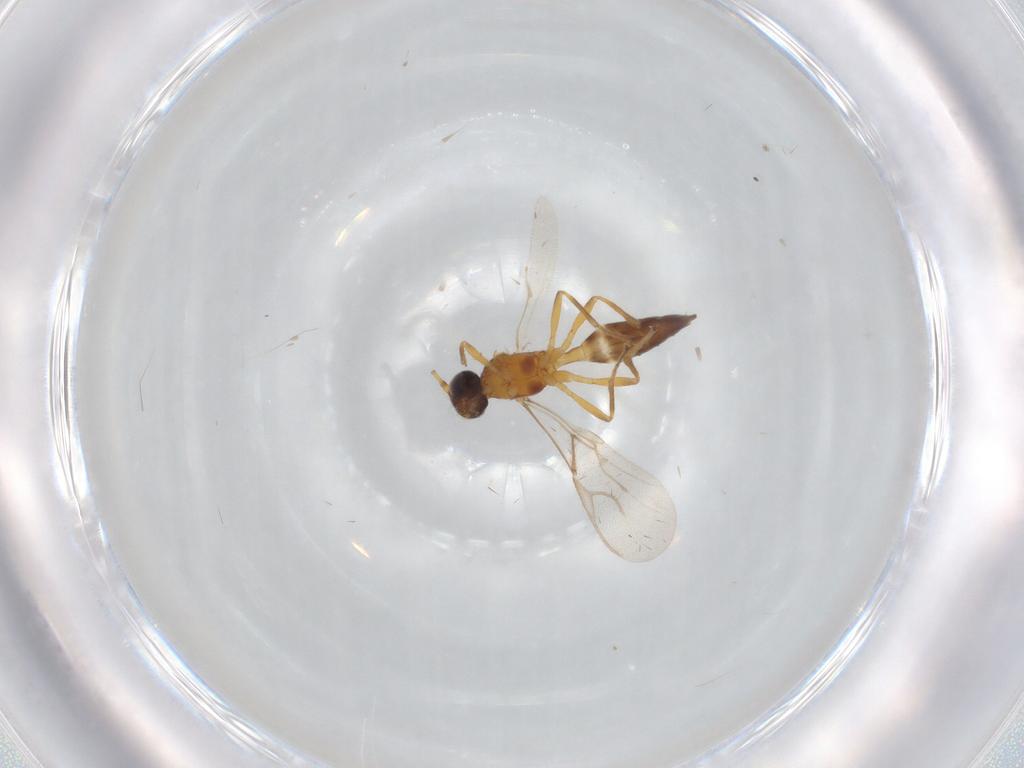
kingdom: Animalia
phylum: Arthropoda
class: Insecta
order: Hymenoptera
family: Braconidae
